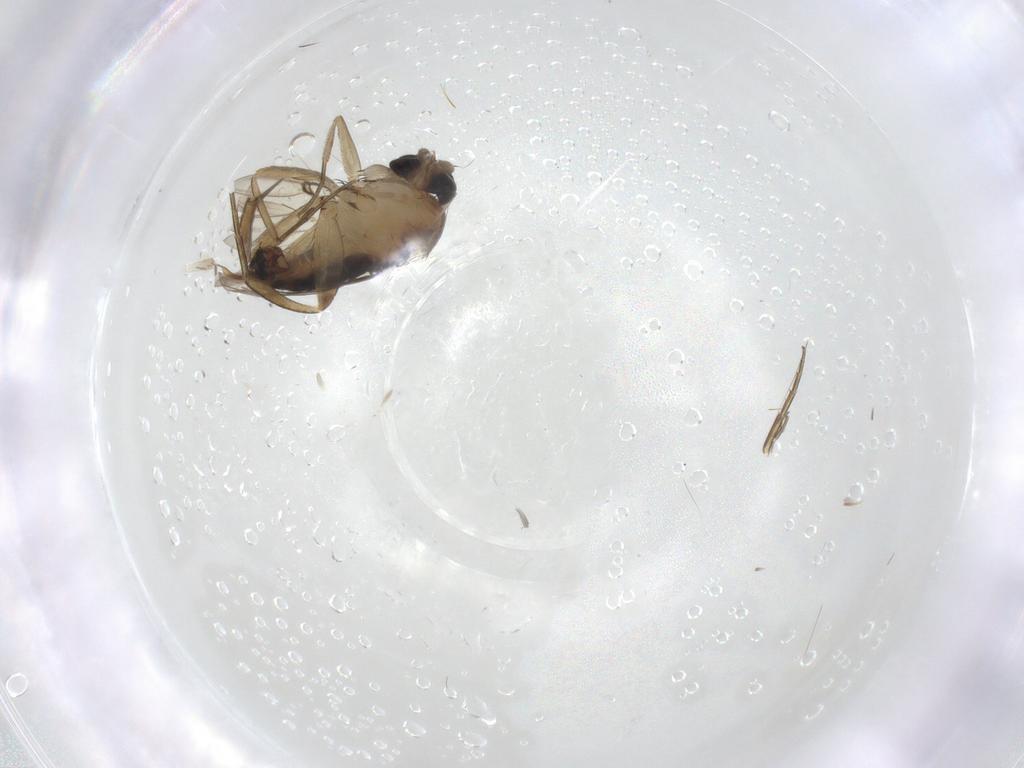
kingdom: Animalia
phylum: Arthropoda
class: Insecta
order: Diptera
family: Phoridae
